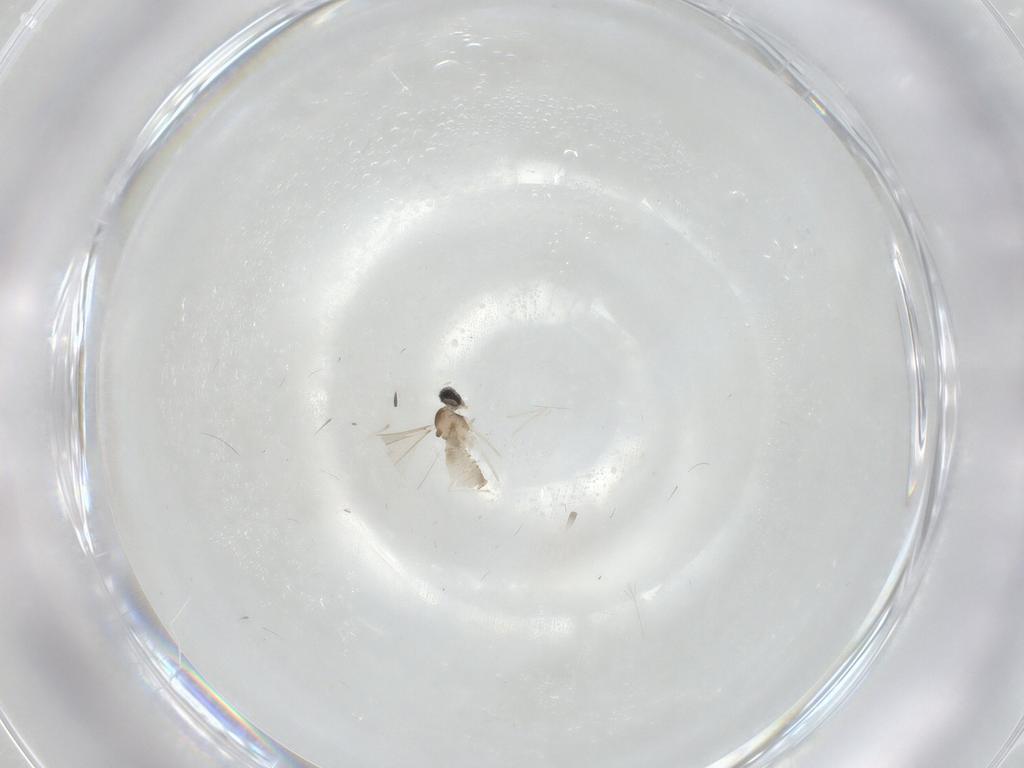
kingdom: Animalia
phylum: Arthropoda
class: Insecta
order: Diptera
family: Cecidomyiidae
